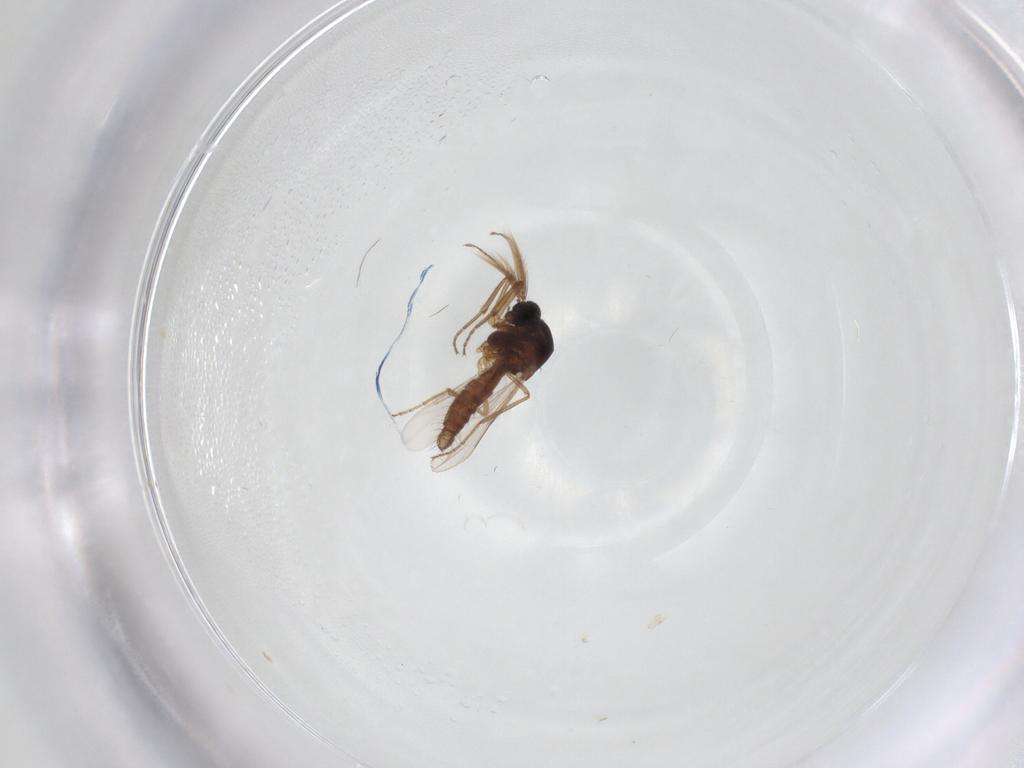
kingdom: Animalia
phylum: Arthropoda
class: Insecta
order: Diptera
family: Ceratopogonidae
